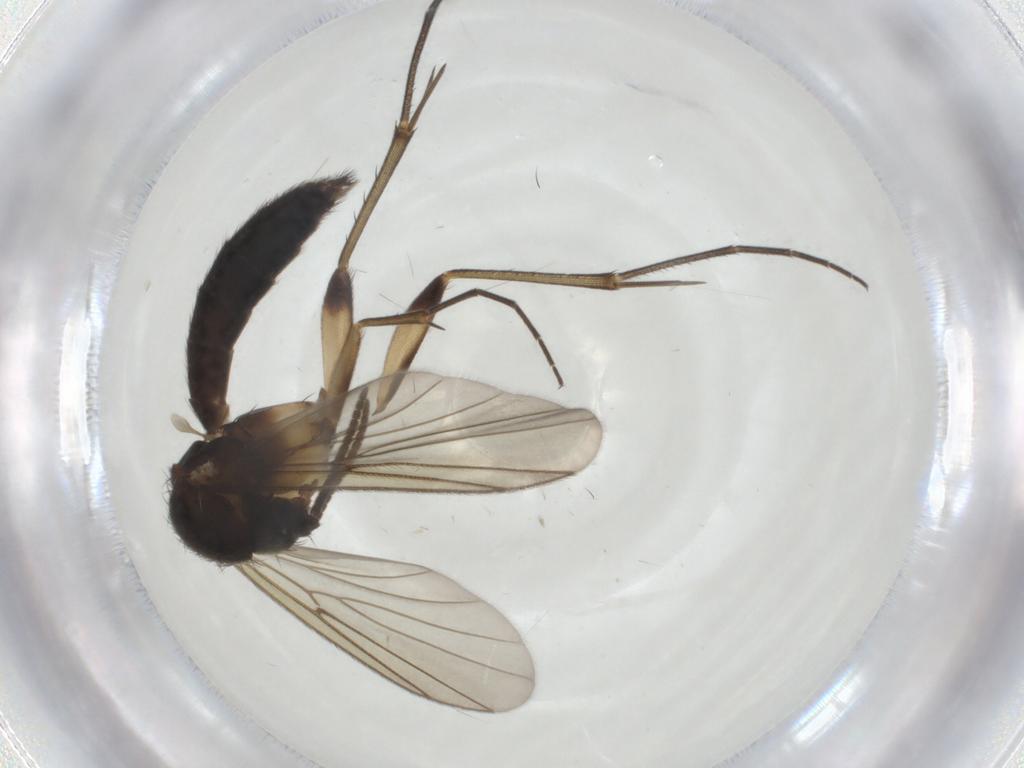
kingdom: Animalia
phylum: Arthropoda
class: Insecta
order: Diptera
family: Mycetophilidae
